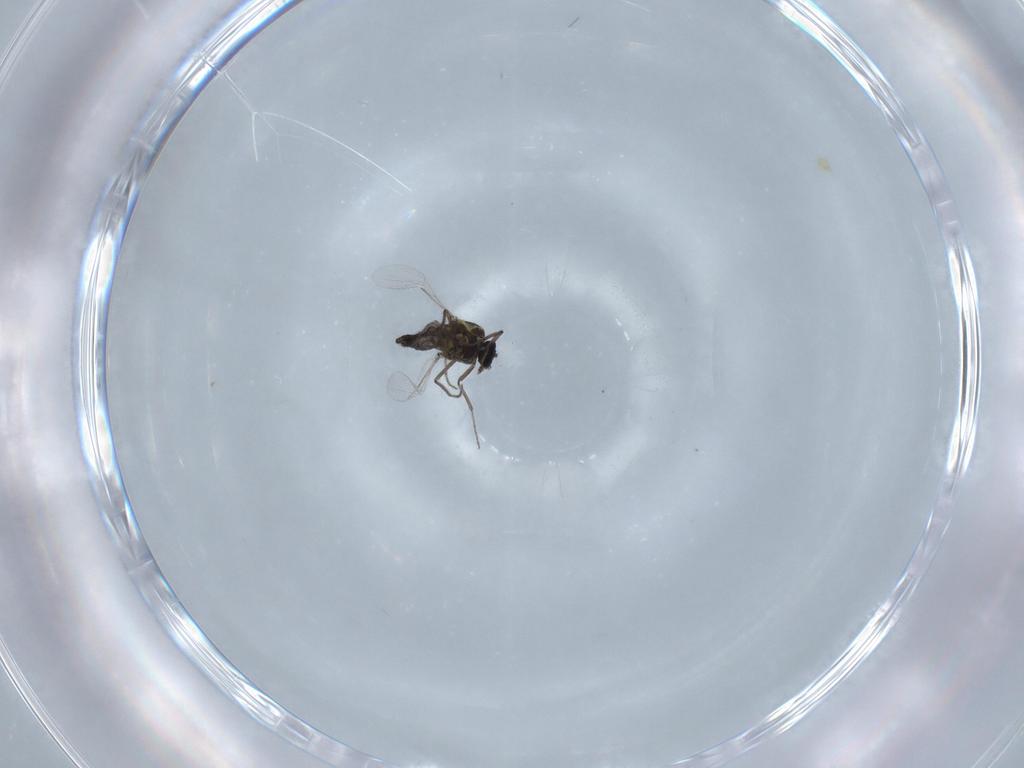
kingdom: Animalia
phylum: Arthropoda
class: Insecta
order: Diptera
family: Ceratopogonidae
